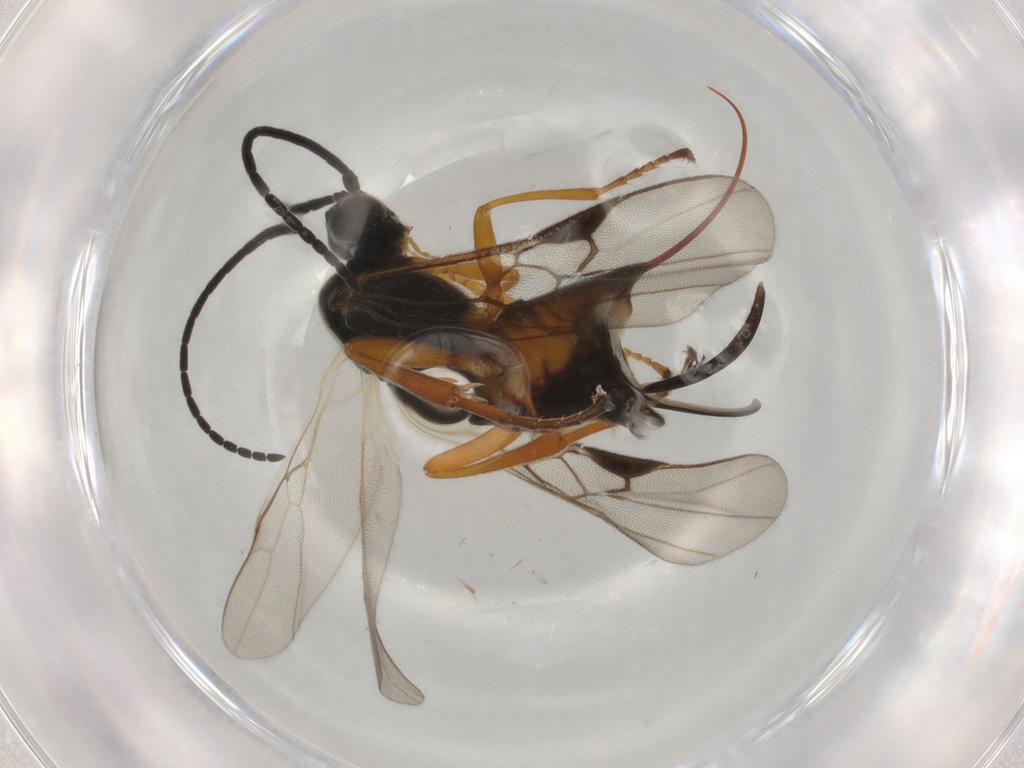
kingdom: Animalia
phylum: Arthropoda
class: Insecta
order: Lepidoptera
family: Tortricidae
